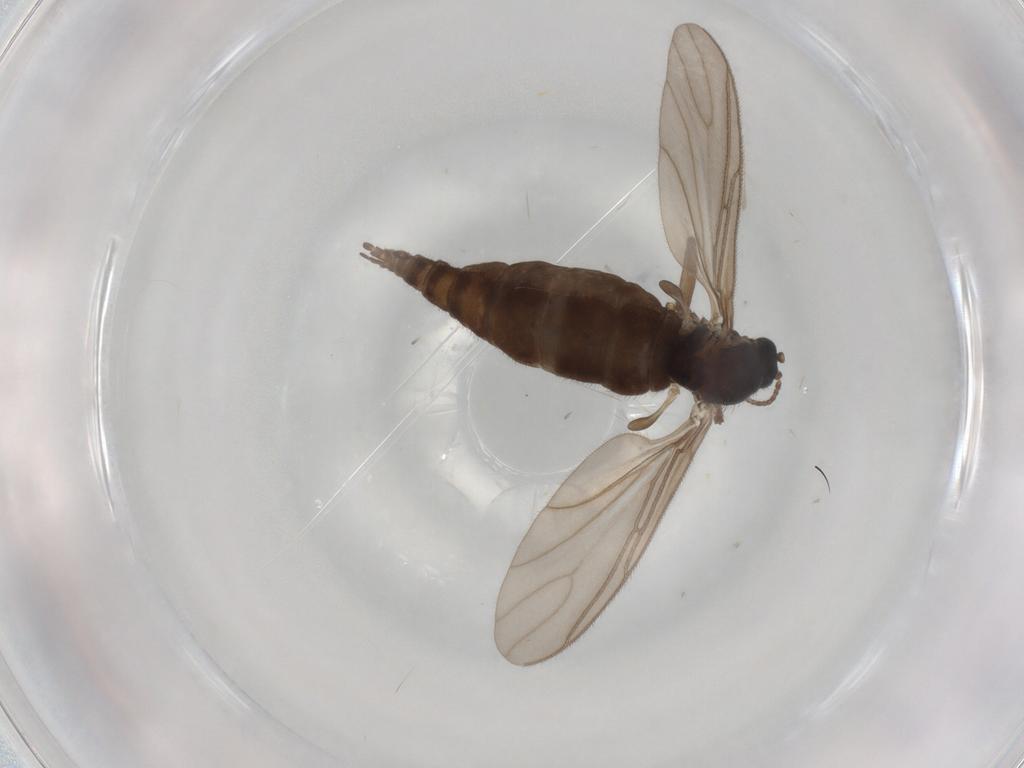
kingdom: Animalia
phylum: Arthropoda
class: Insecta
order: Diptera
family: Sciaridae
